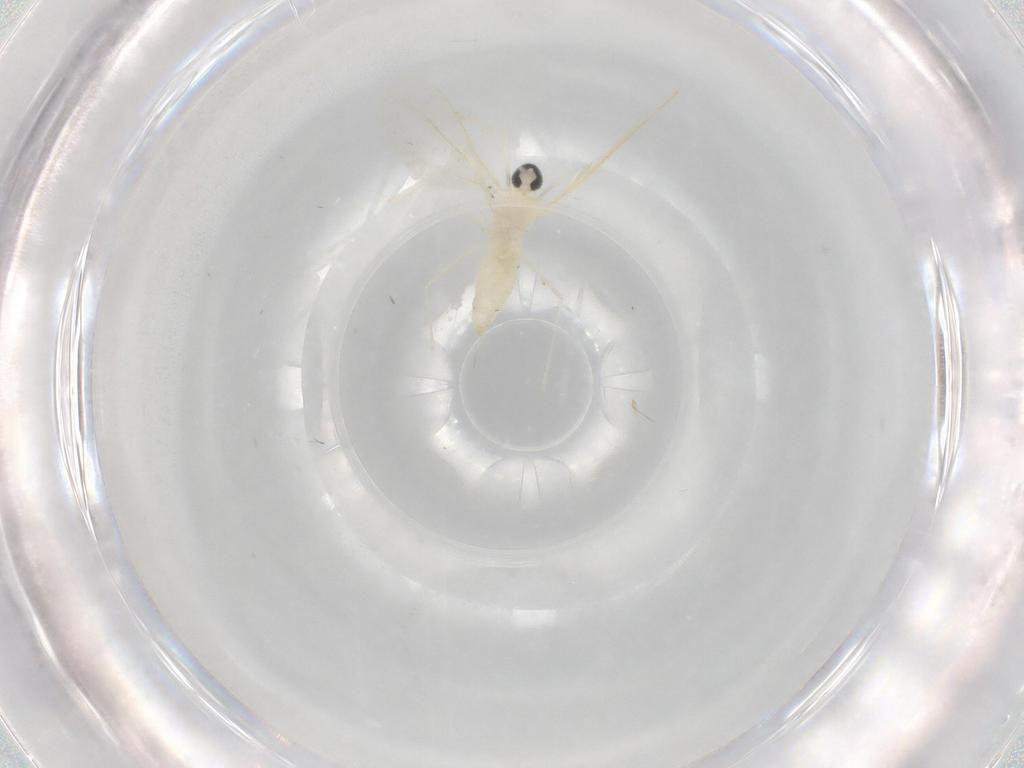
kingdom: Animalia
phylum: Arthropoda
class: Insecta
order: Diptera
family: Cecidomyiidae
